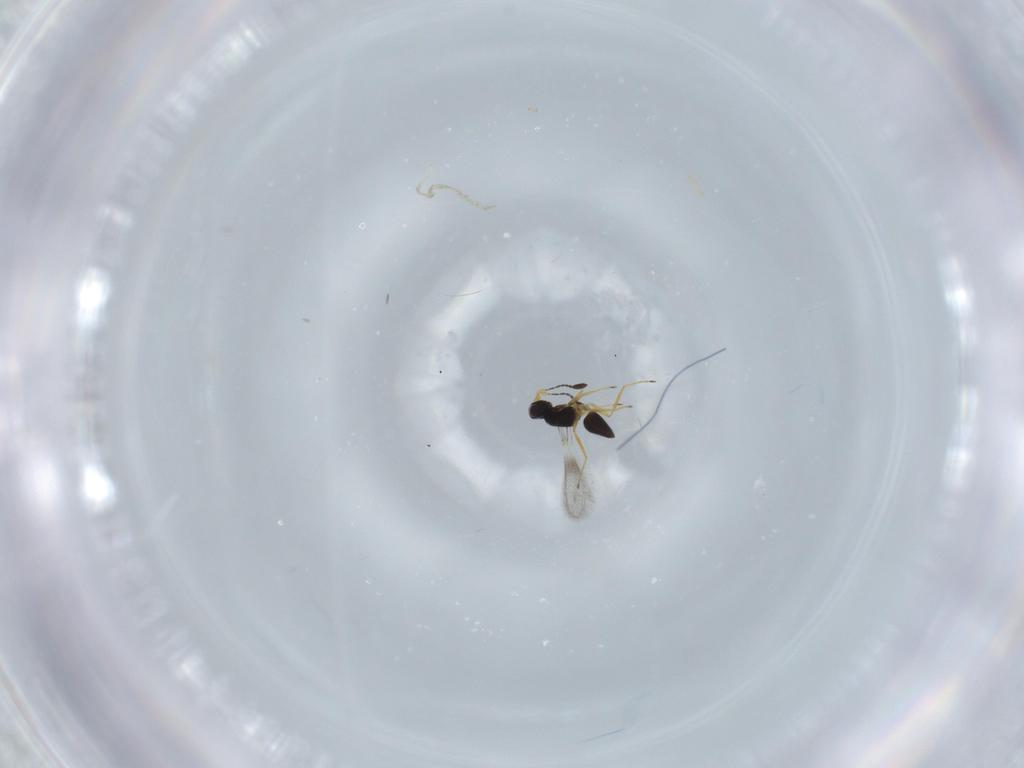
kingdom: Animalia
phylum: Arthropoda
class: Insecta
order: Hymenoptera
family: Mymaridae
